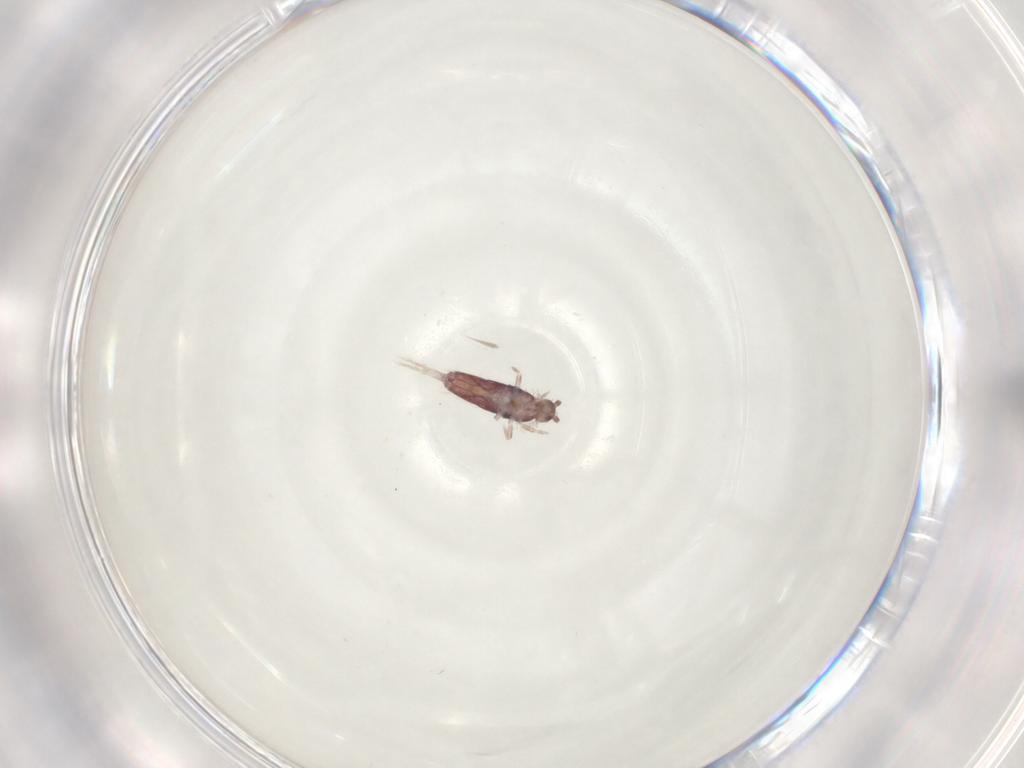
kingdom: Animalia
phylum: Arthropoda
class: Collembola
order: Entomobryomorpha
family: Entomobryidae
